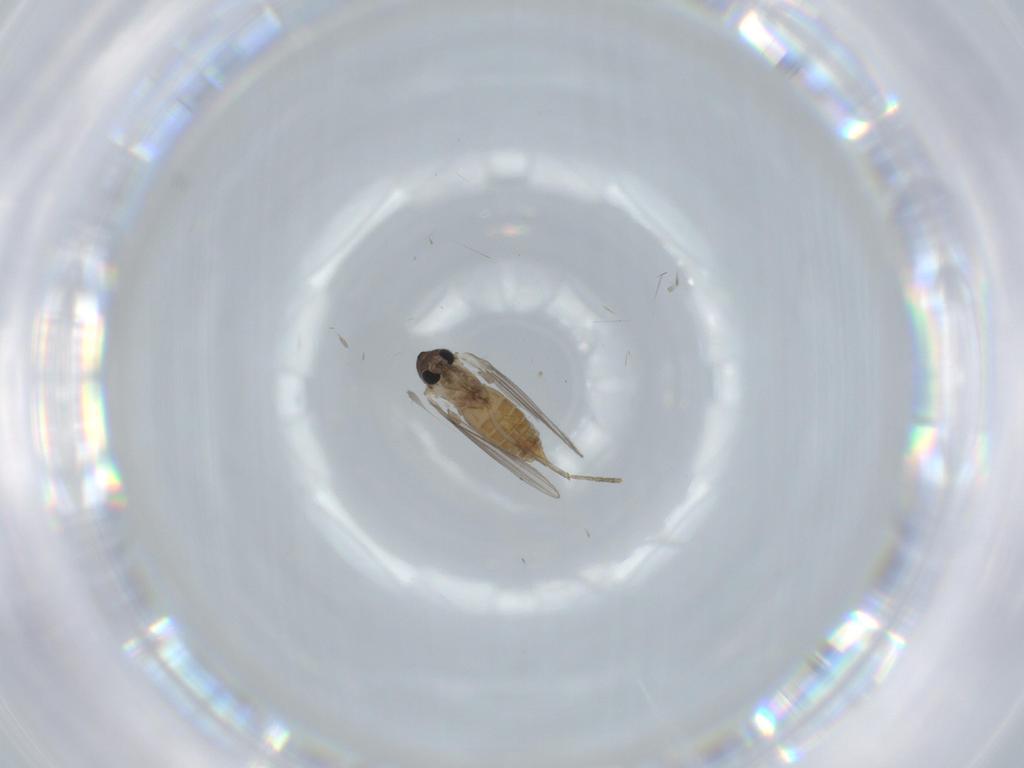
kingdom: Animalia
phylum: Arthropoda
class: Insecta
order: Diptera
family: Psychodidae
